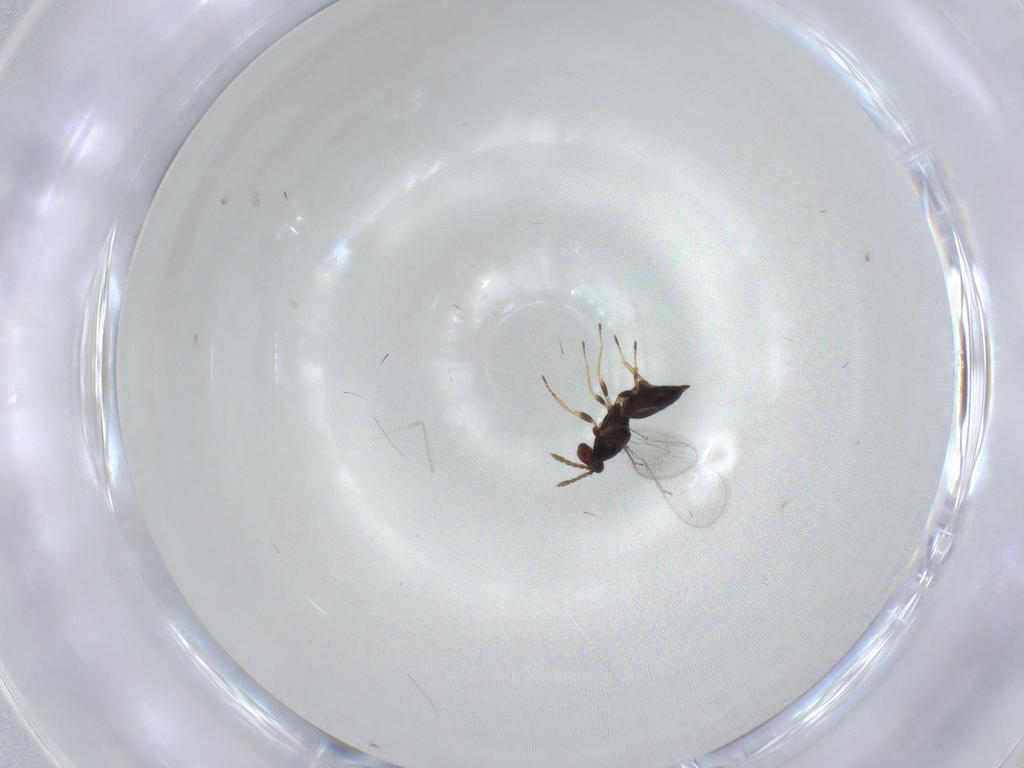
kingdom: Animalia
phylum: Arthropoda
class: Insecta
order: Hymenoptera
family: Eulophidae
